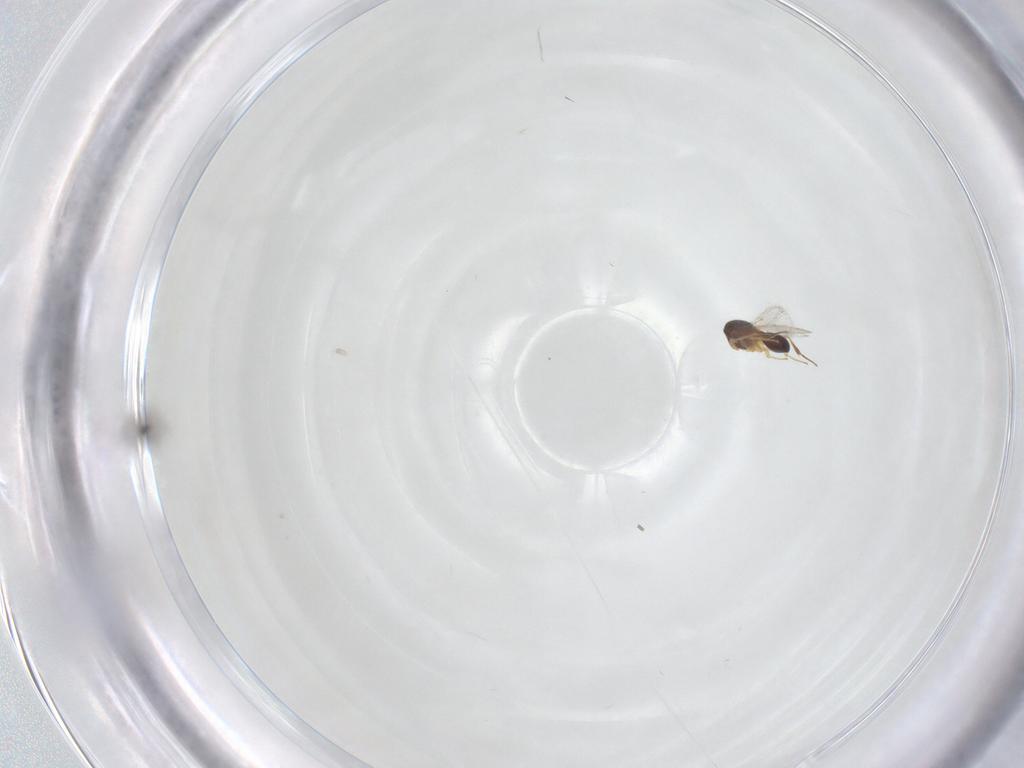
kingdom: Animalia
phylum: Arthropoda
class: Insecta
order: Hymenoptera
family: Platygastridae
